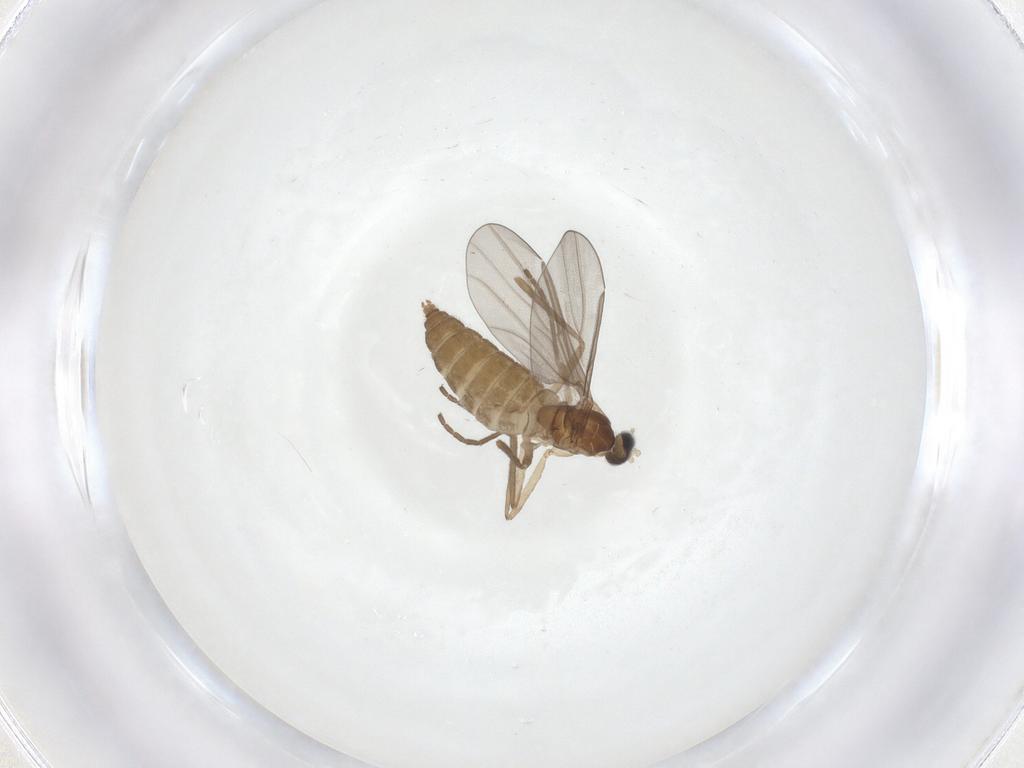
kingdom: Animalia
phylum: Arthropoda
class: Insecta
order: Diptera
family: Cecidomyiidae
